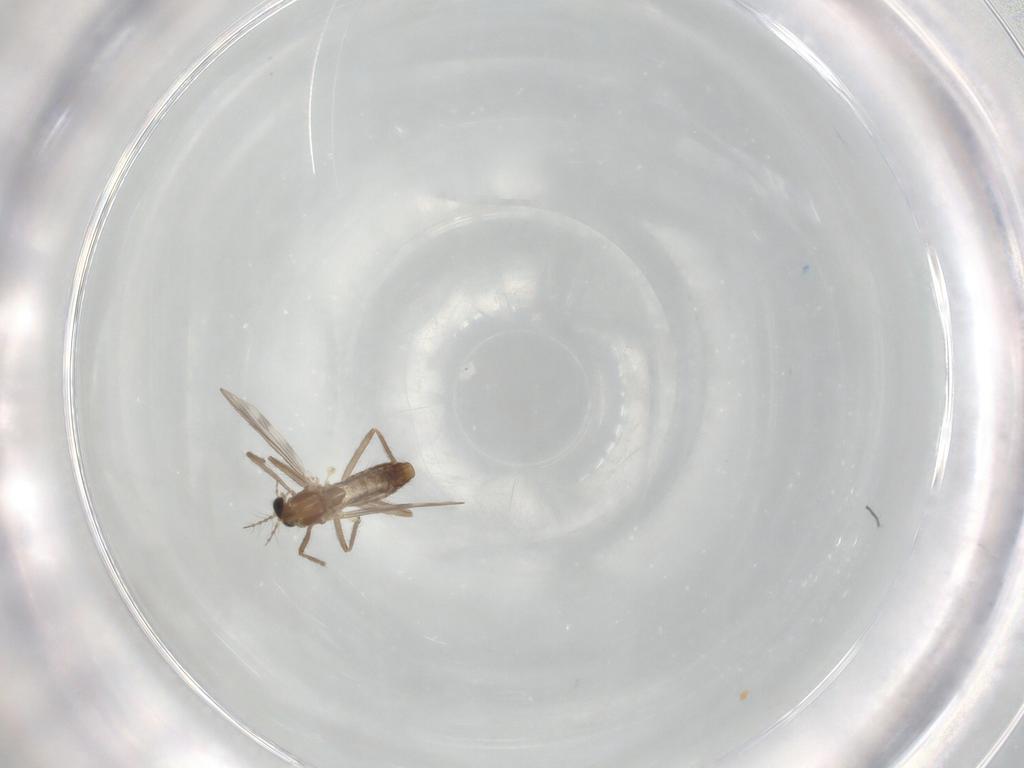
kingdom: Animalia
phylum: Arthropoda
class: Insecta
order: Diptera
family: Chironomidae
